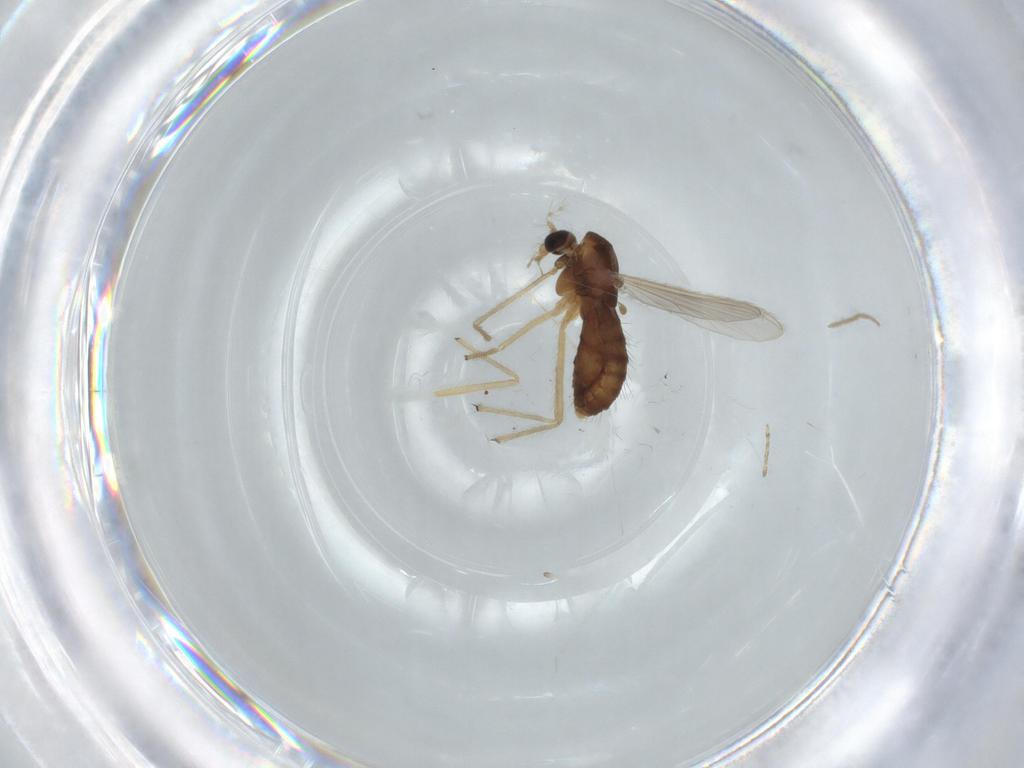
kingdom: Animalia
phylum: Arthropoda
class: Insecta
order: Diptera
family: Chironomidae
